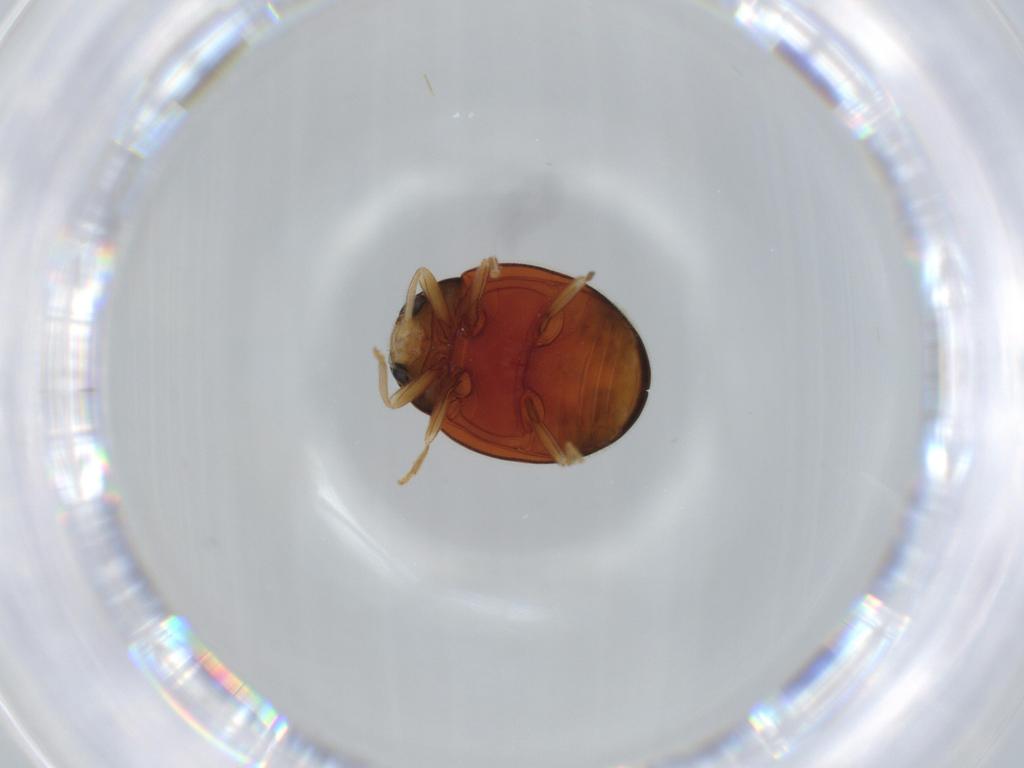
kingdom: Animalia
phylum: Arthropoda
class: Insecta
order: Coleoptera
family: Coccinellidae
